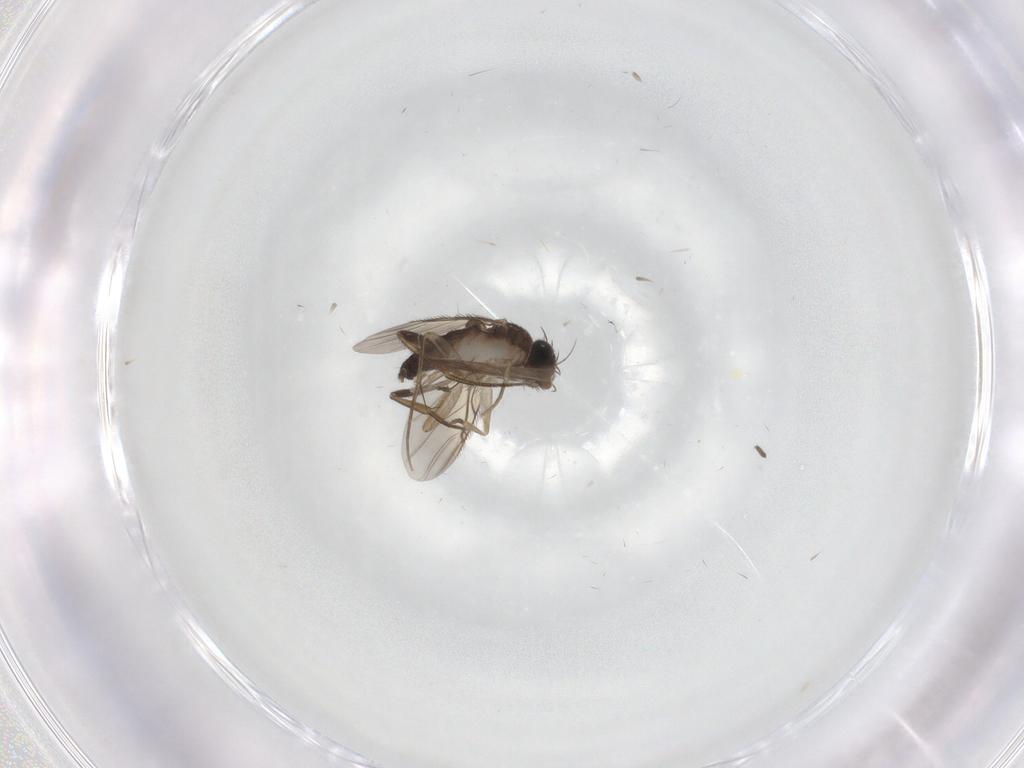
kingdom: Animalia
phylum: Arthropoda
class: Insecta
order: Diptera
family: Dolichopodidae
